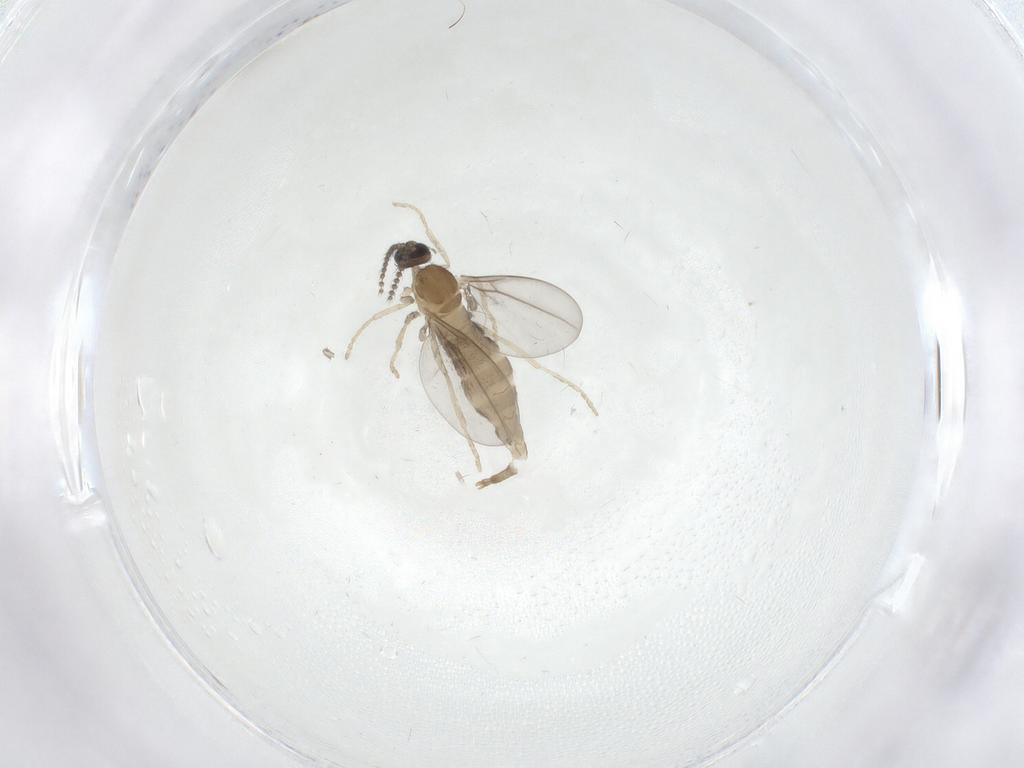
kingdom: Animalia
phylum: Arthropoda
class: Insecta
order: Diptera
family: Cecidomyiidae
